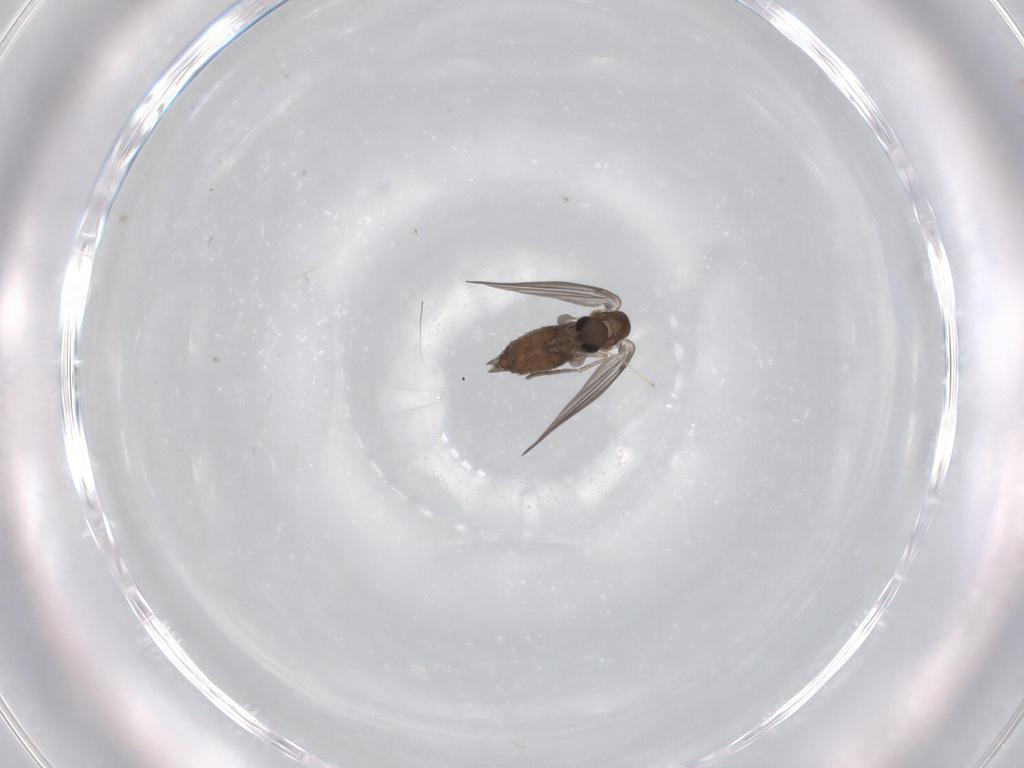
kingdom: Animalia
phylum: Arthropoda
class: Insecta
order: Diptera
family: Psychodidae
